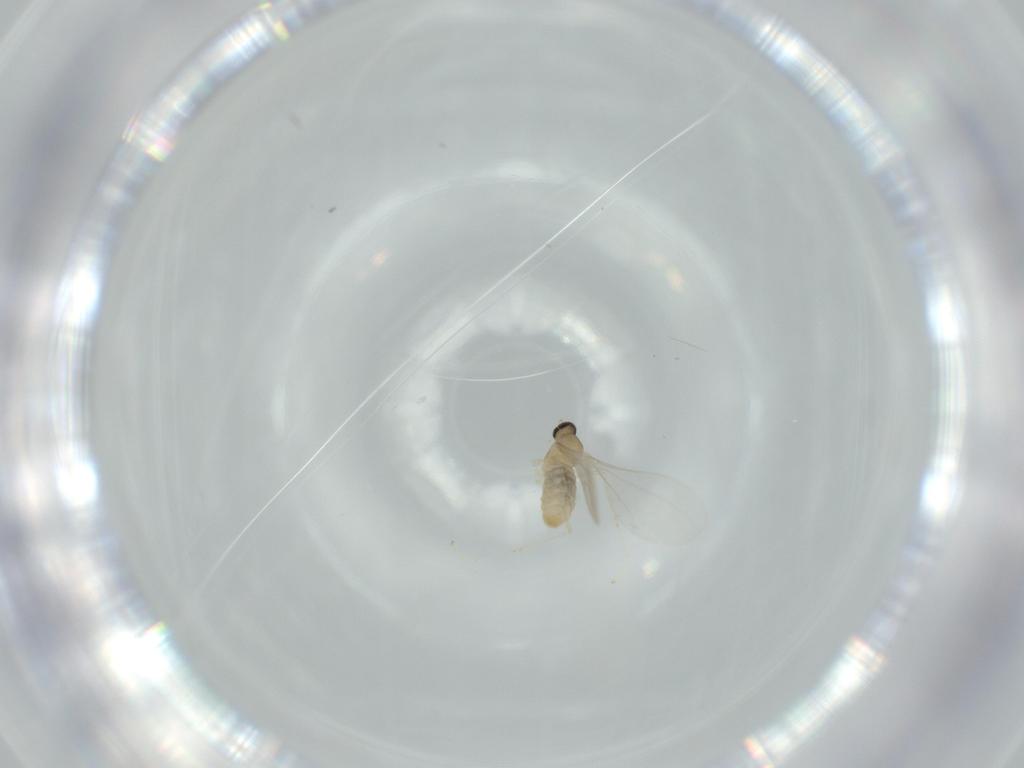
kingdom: Animalia
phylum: Arthropoda
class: Insecta
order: Diptera
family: Cecidomyiidae
